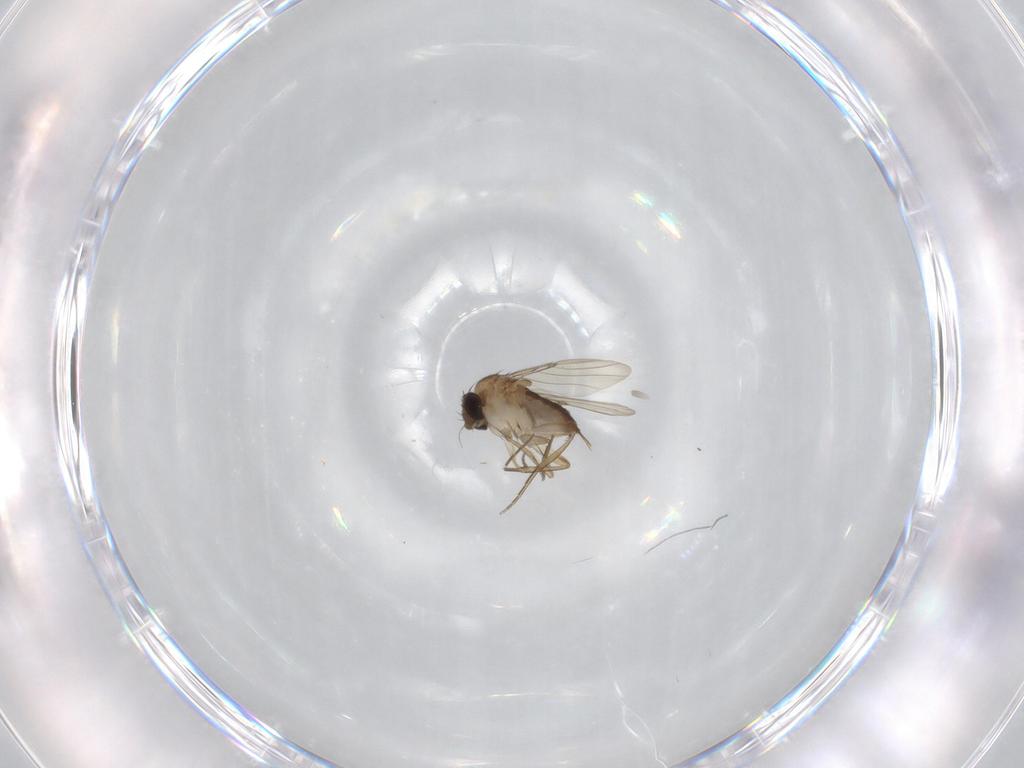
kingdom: Animalia
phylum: Arthropoda
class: Insecta
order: Diptera
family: Phoridae
